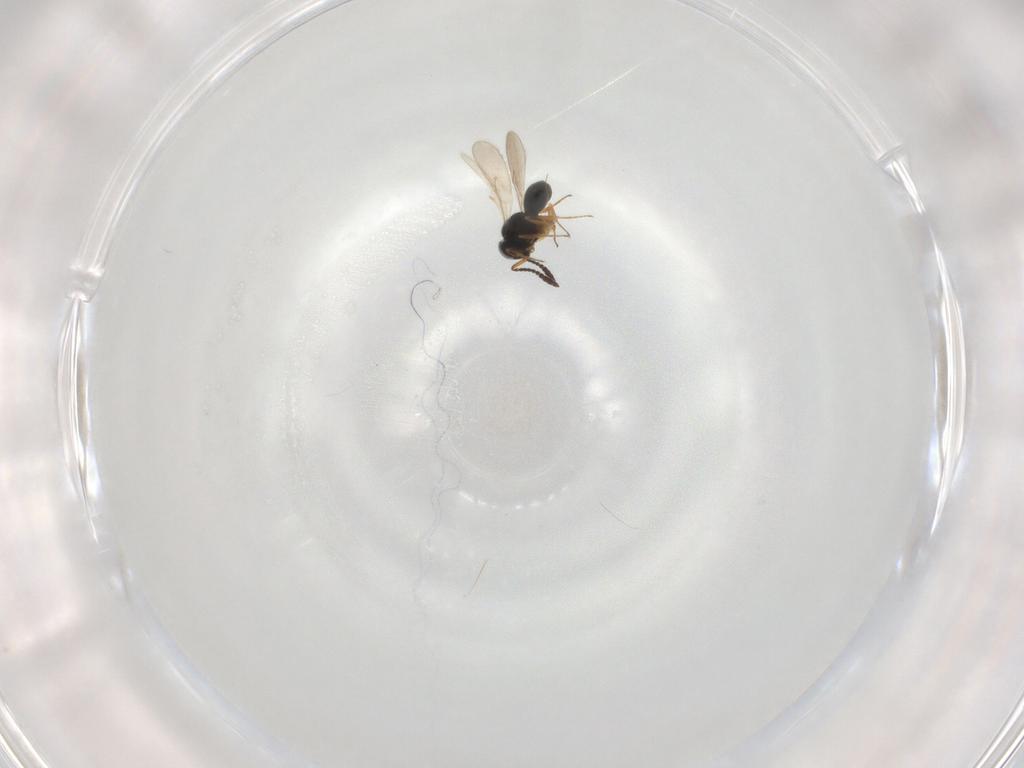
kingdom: Animalia
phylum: Arthropoda
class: Insecta
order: Hymenoptera
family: Scelionidae
